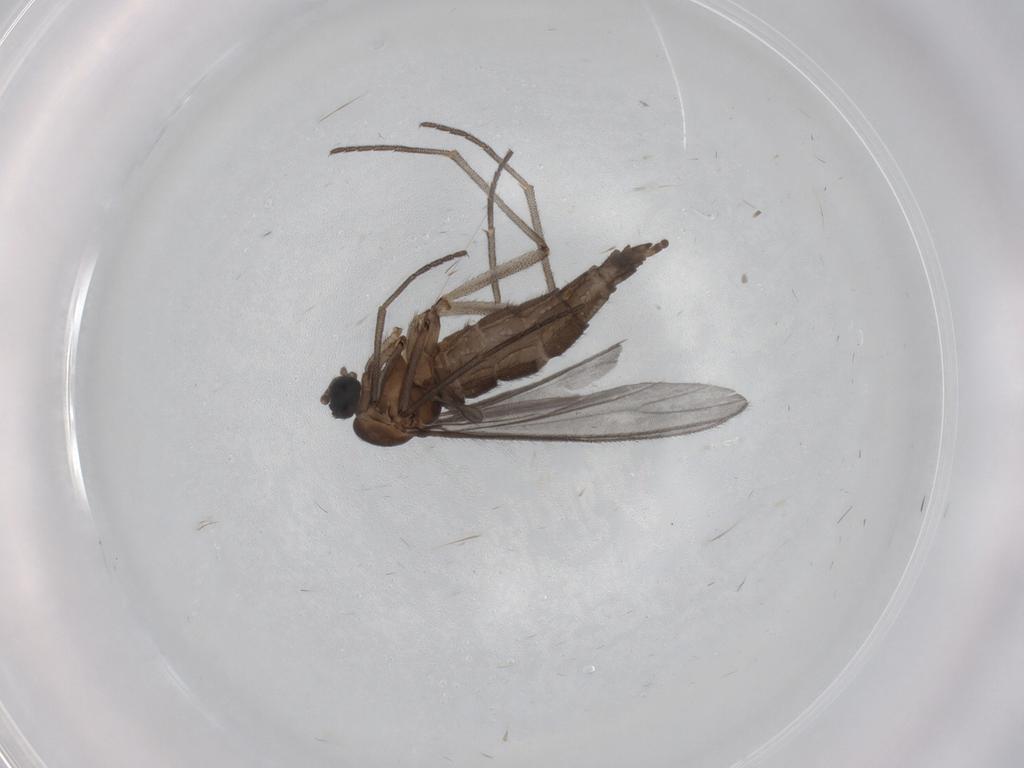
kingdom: Animalia
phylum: Arthropoda
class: Insecta
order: Diptera
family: Sciaridae
